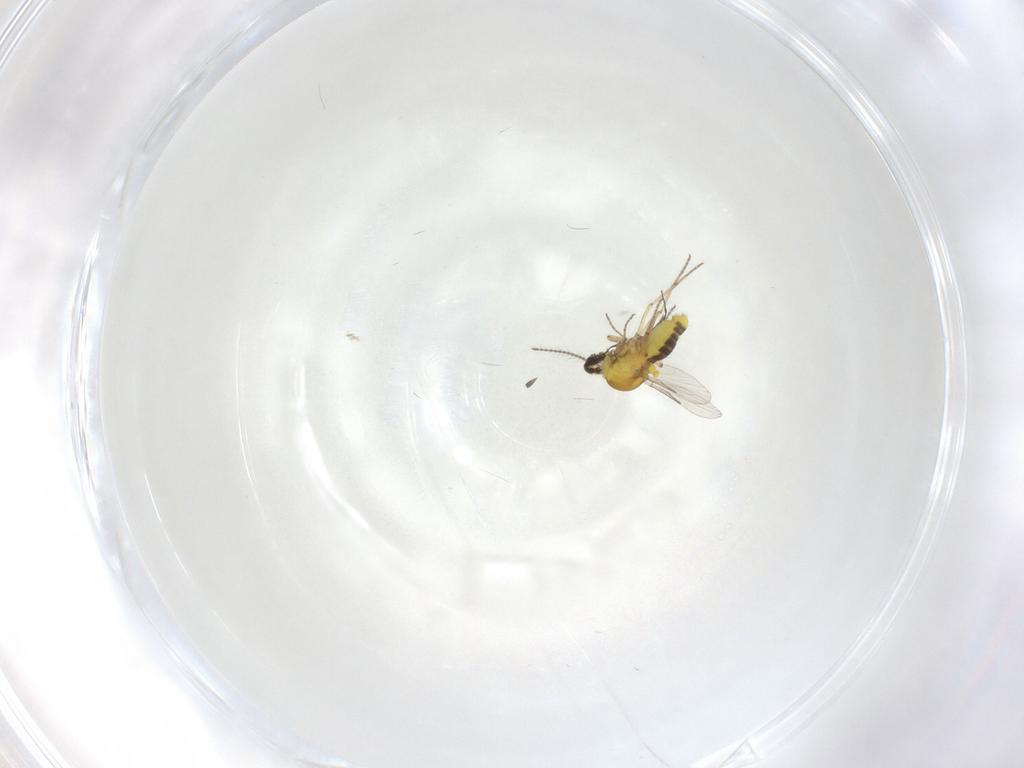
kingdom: Animalia
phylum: Arthropoda
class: Insecta
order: Diptera
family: Ceratopogonidae
